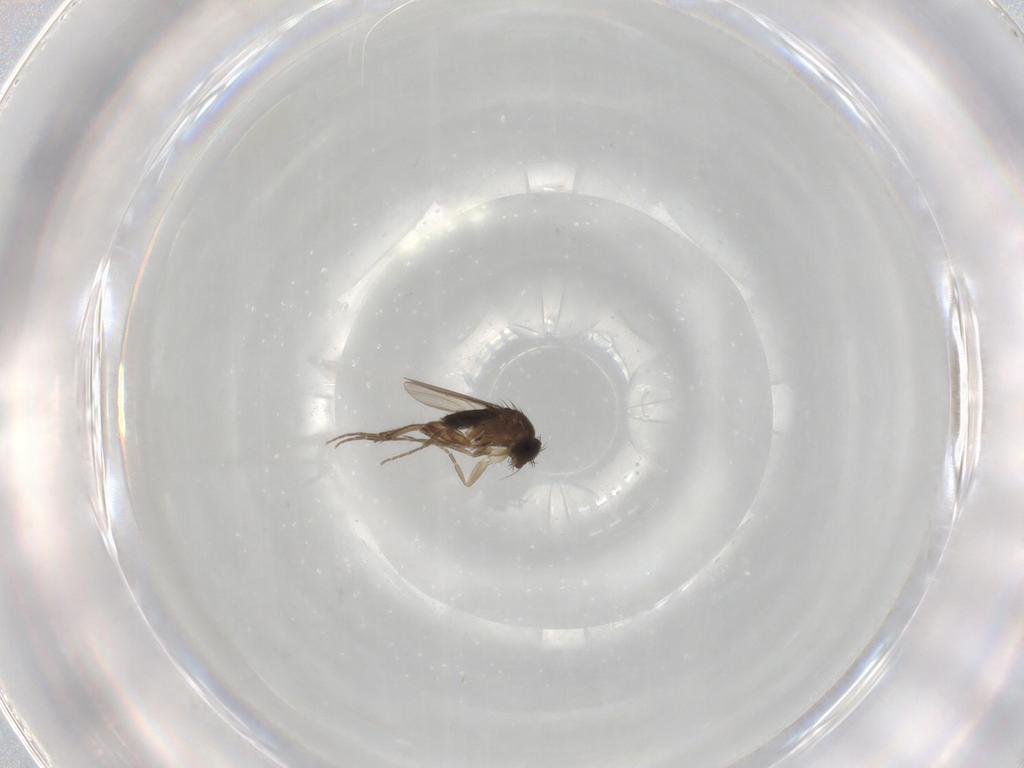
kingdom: Animalia
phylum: Arthropoda
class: Insecta
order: Diptera
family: Phoridae
